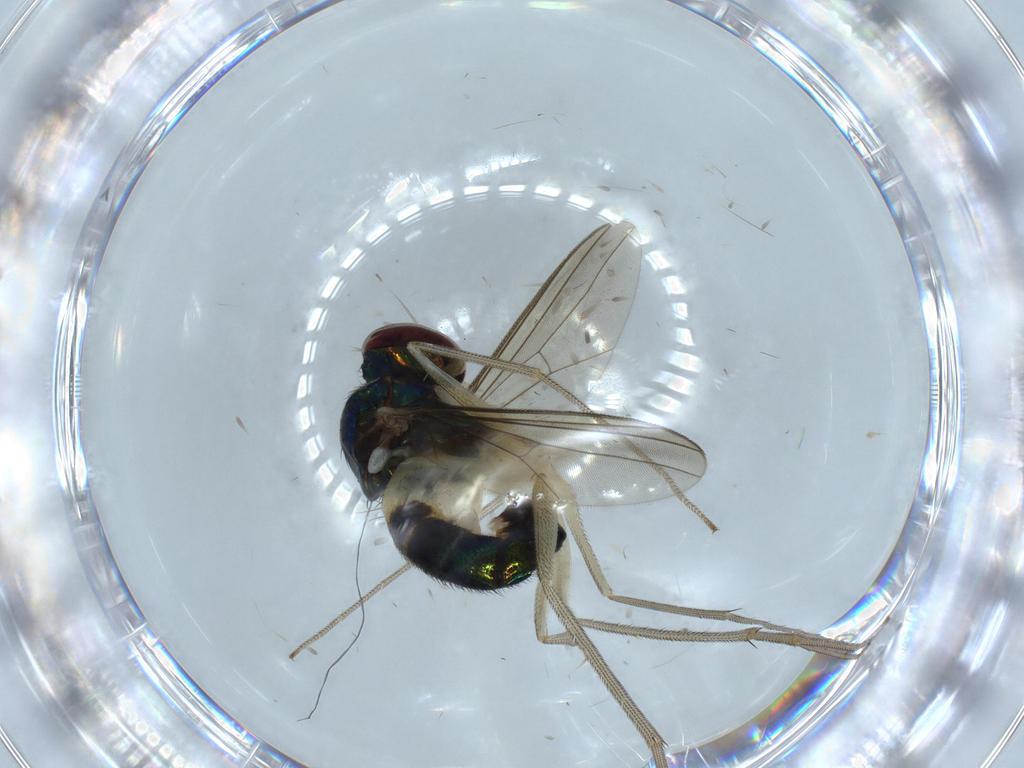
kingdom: Animalia
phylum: Arthropoda
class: Insecta
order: Diptera
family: Dolichopodidae
